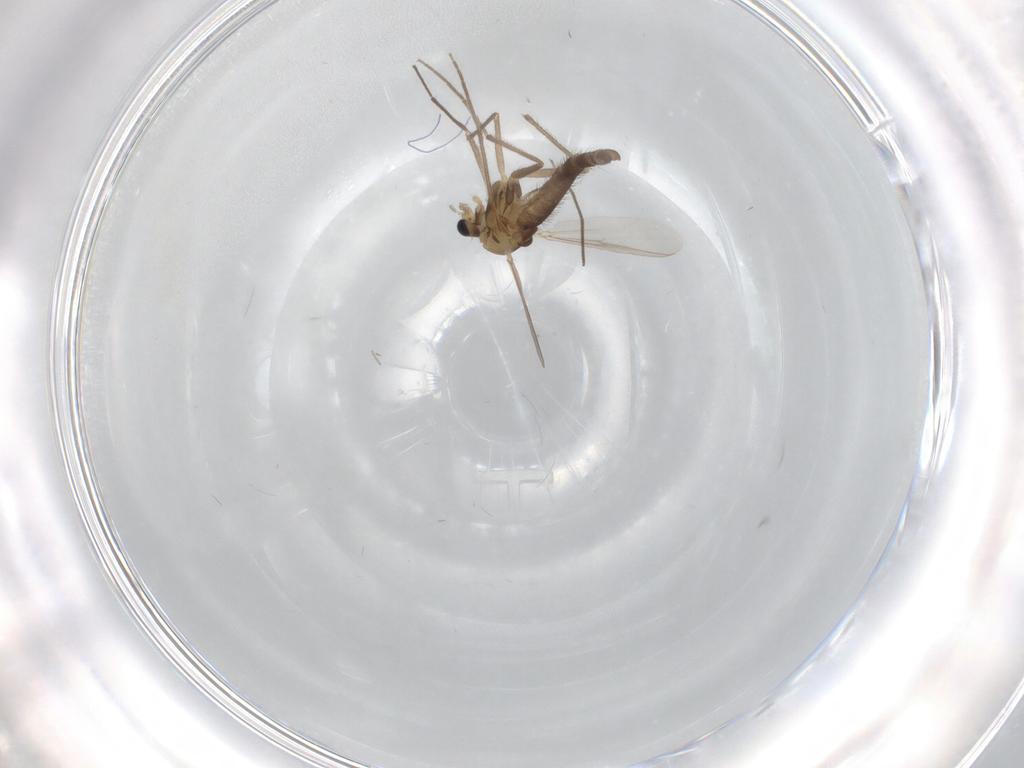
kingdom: Animalia
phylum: Arthropoda
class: Insecta
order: Diptera
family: Chironomidae
